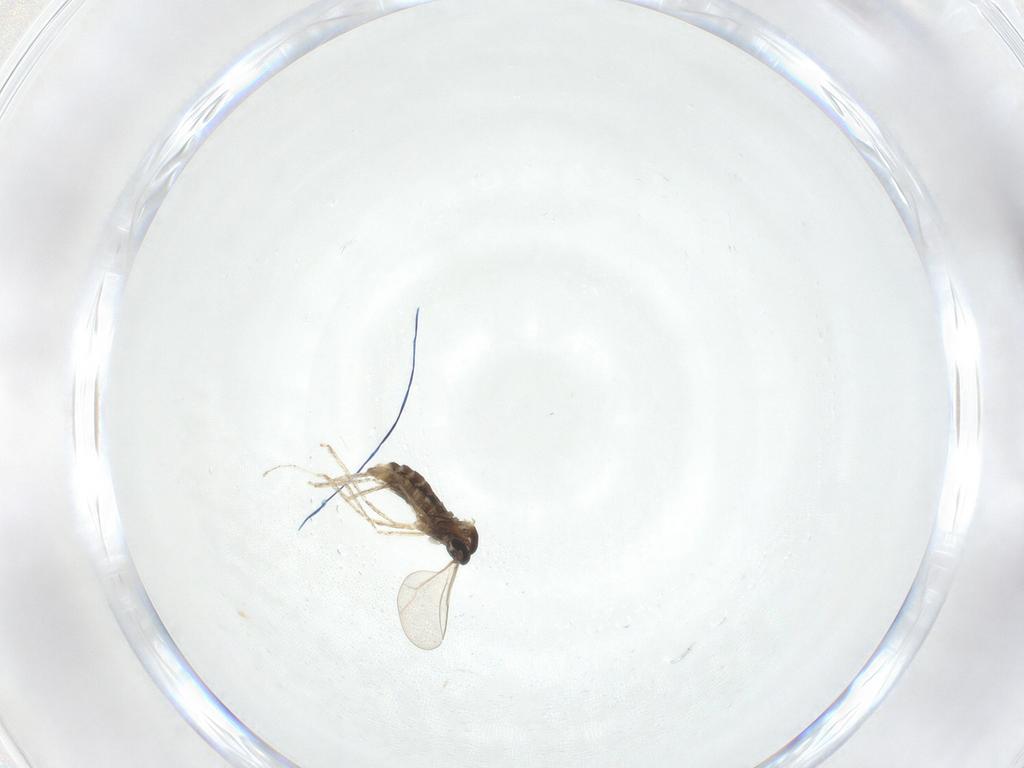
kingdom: Animalia
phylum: Arthropoda
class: Insecta
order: Diptera
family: Cecidomyiidae
